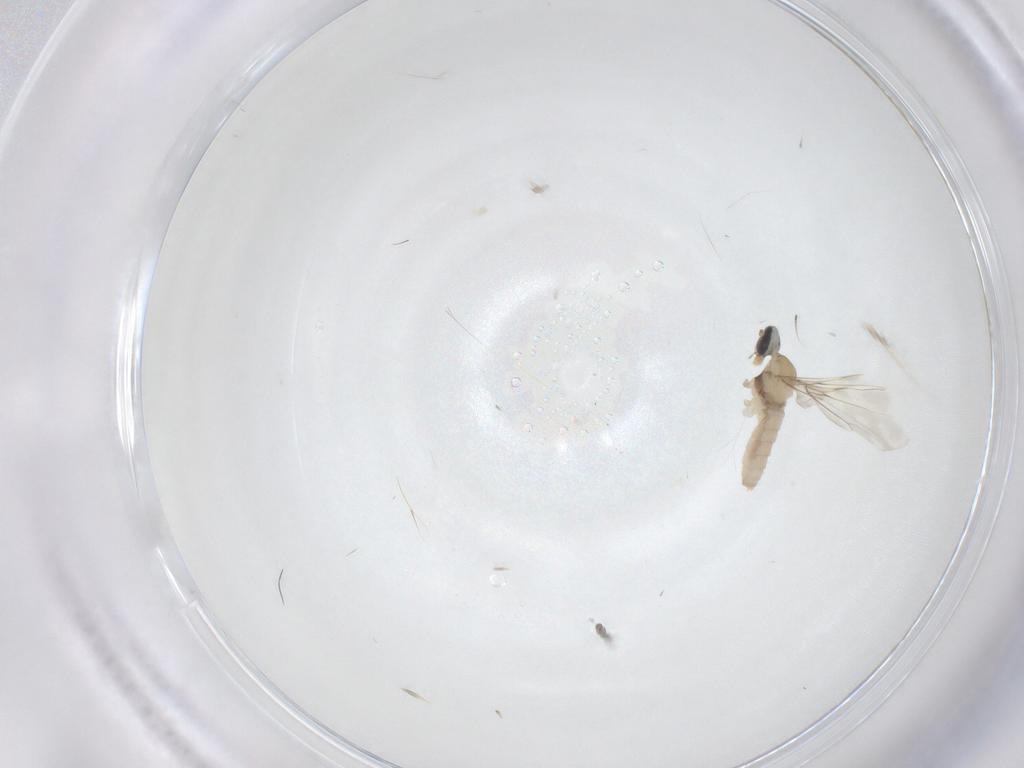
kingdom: Animalia
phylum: Arthropoda
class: Insecta
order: Diptera
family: Cecidomyiidae
